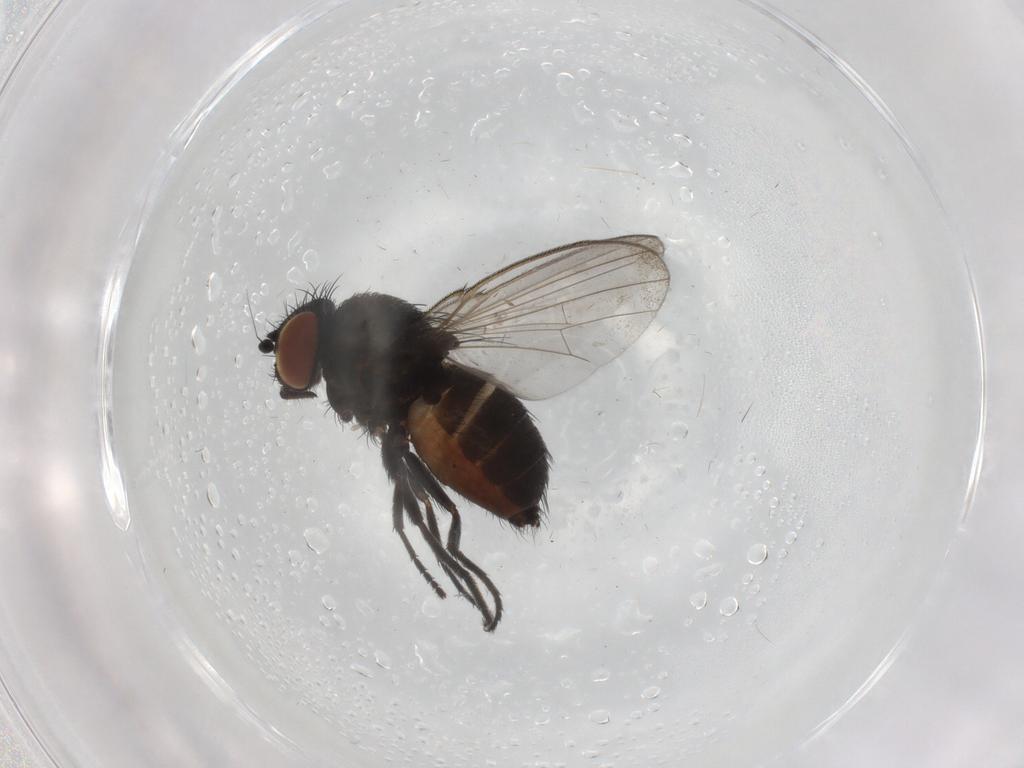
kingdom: Animalia
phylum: Arthropoda
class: Insecta
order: Diptera
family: Milichiidae
